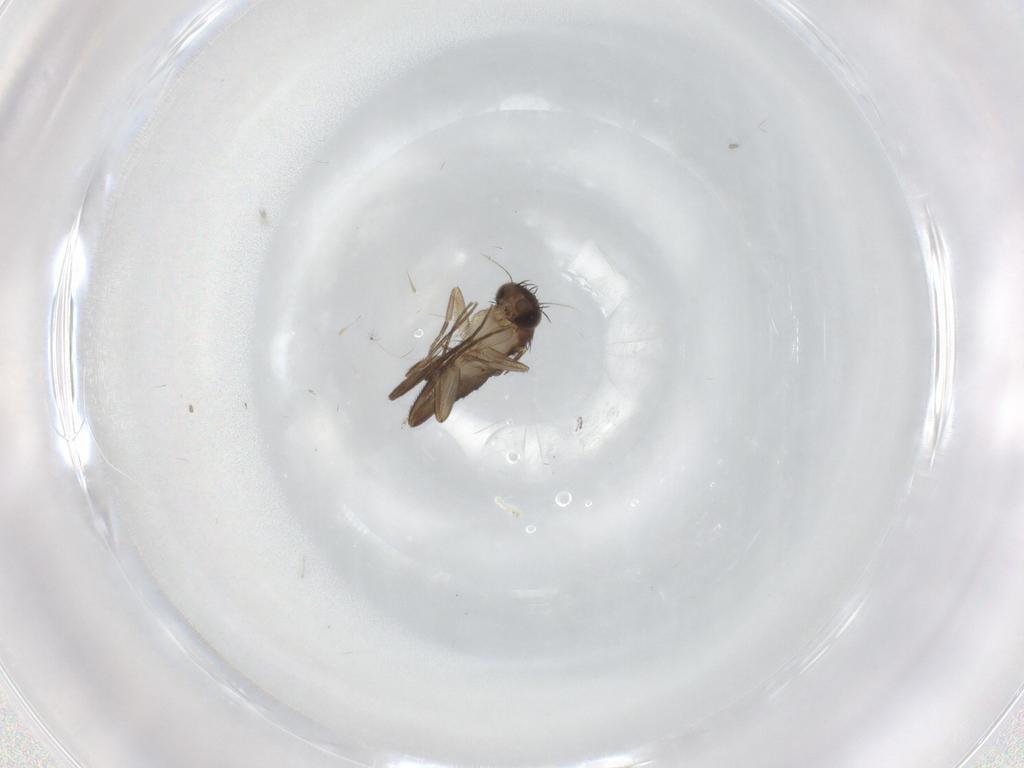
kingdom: Animalia
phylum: Arthropoda
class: Insecta
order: Diptera
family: Phoridae
